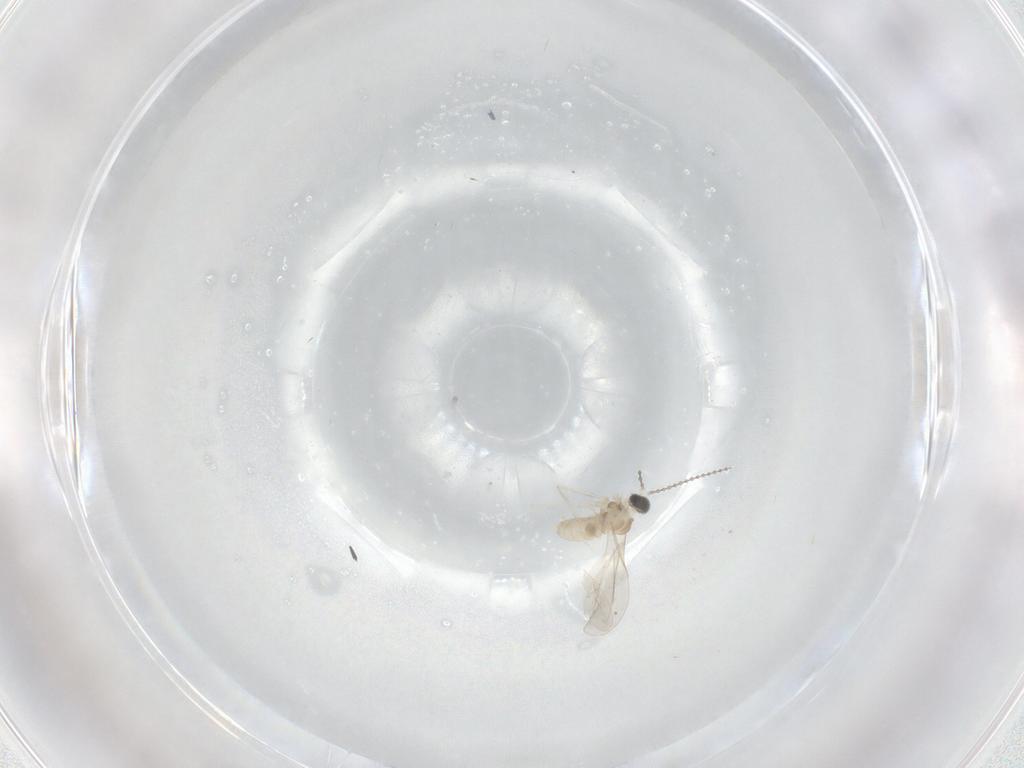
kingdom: Animalia
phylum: Arthropoda
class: Insecta
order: Diptera
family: Cecidomyiidae
